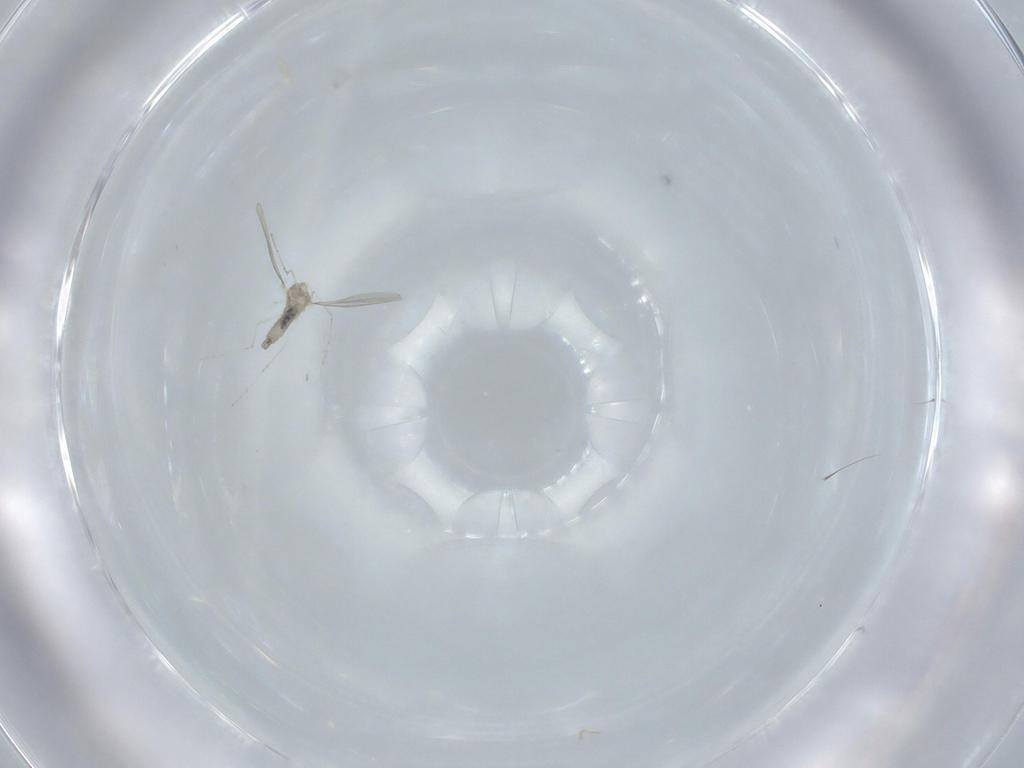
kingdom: Animalia
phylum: Arthropoda
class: Insecta
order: Diptera
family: Cecidomyiidae
